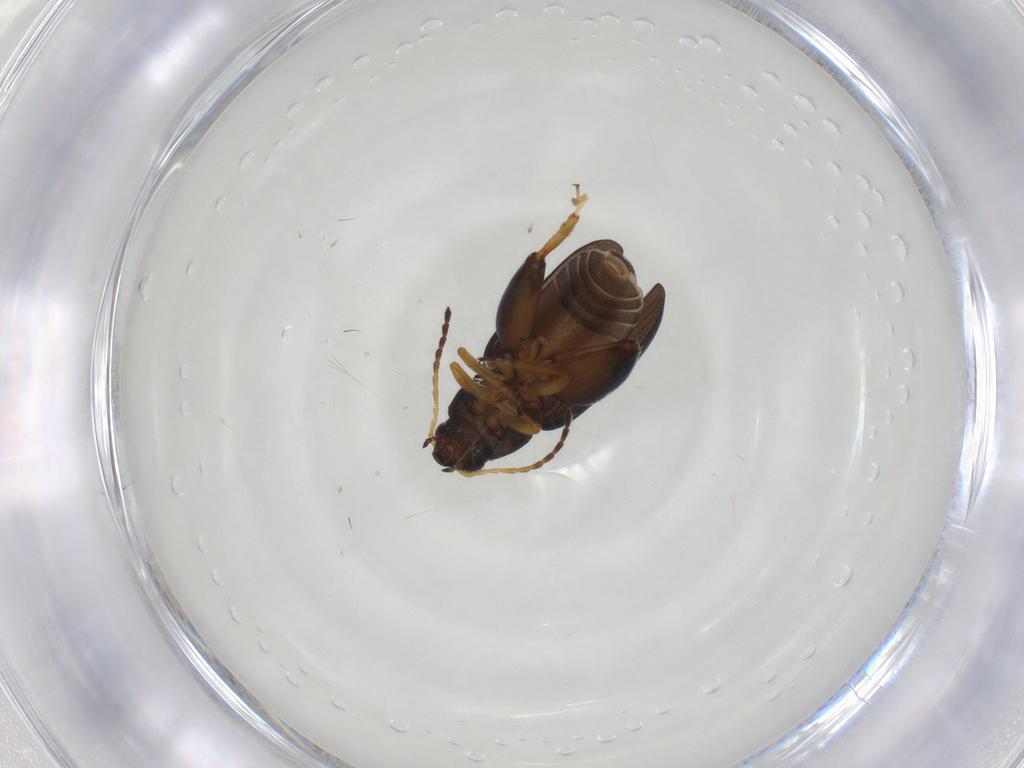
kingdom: Animalia
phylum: Arthropoda
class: Insecta
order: Coleoptera
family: Chrysomelidae
